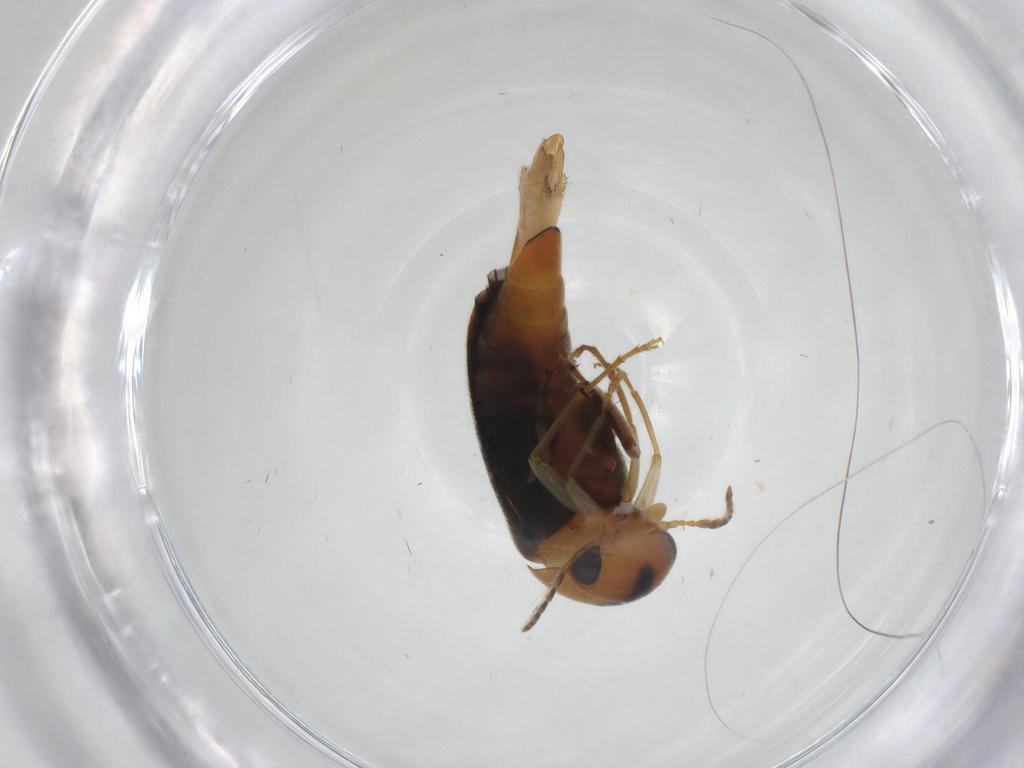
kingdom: Animalia
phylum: Arthropoda
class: Insecta
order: Coleoptera
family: Mordellidae
